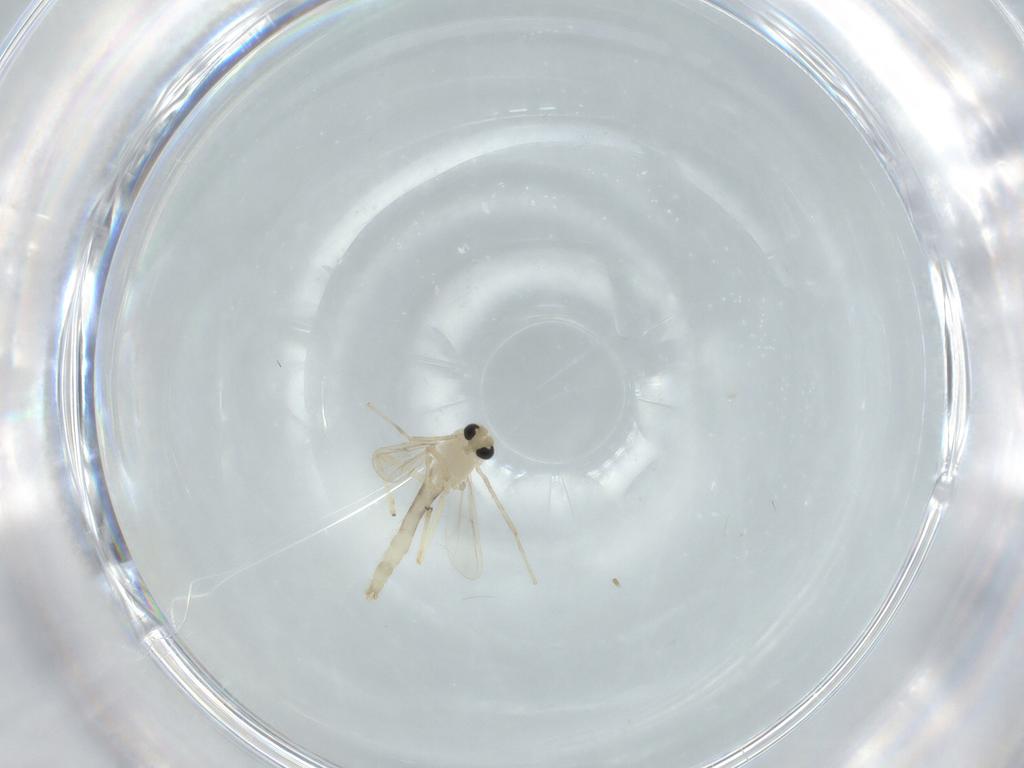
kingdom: Animalia
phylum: Arthropoda
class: Insecta
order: Diptera
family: Chironomidae
